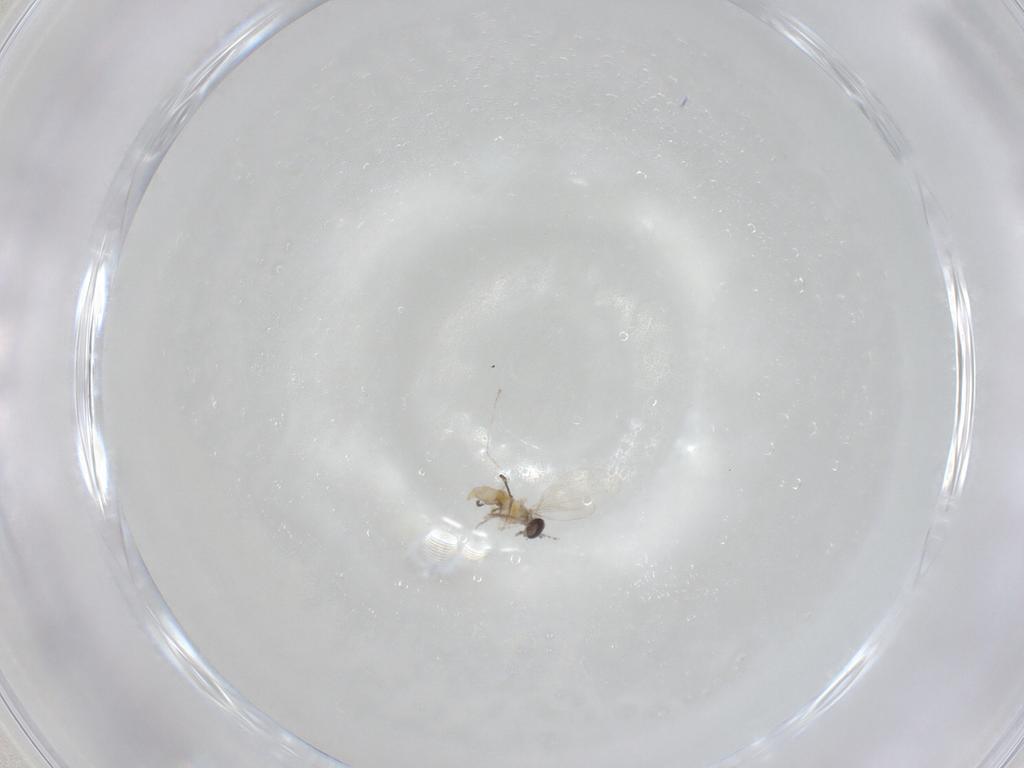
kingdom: Animalia
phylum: Arthropoda
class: Insecta
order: Diptera
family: Cecidomyiidae
